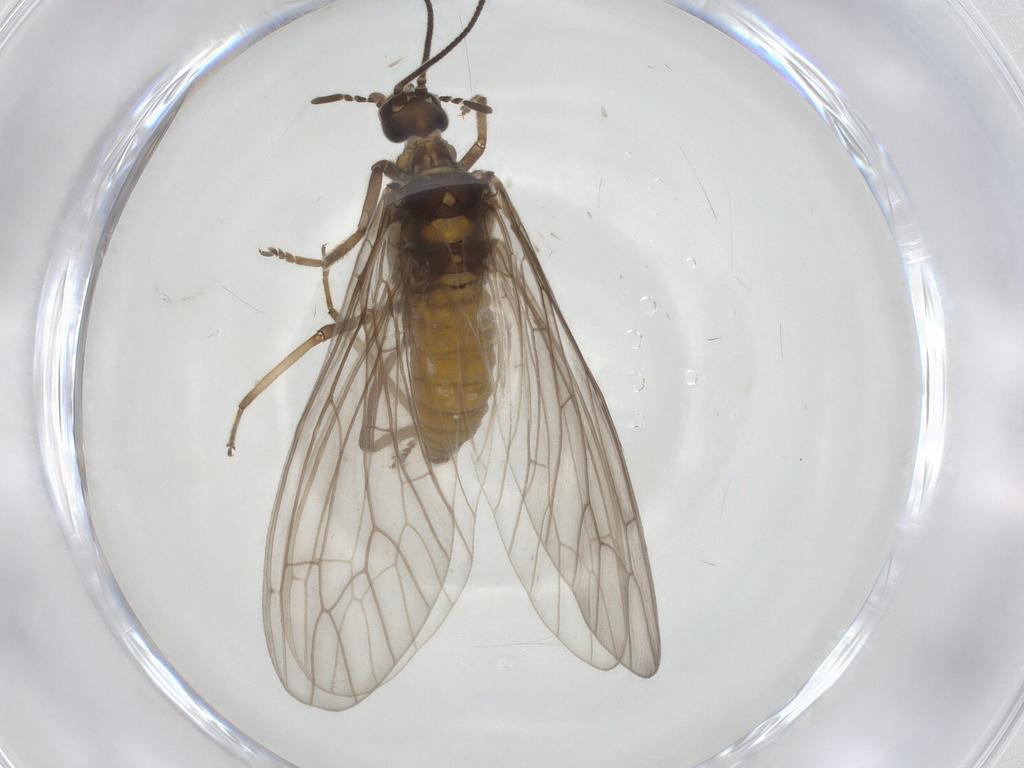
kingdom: Animalia
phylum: Arthropoda
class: Insecta
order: Neuroptera
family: Coniopterygidae
